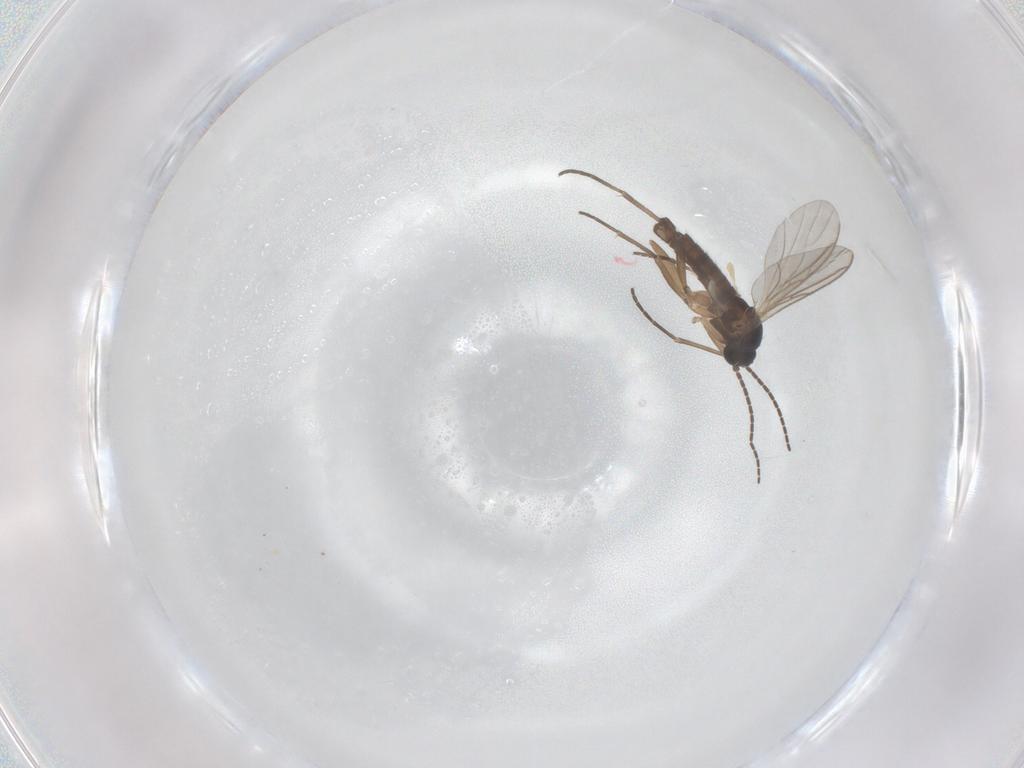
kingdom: Animalia
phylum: Arthropoda
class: Insecta
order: Diptera
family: Sciaridae
